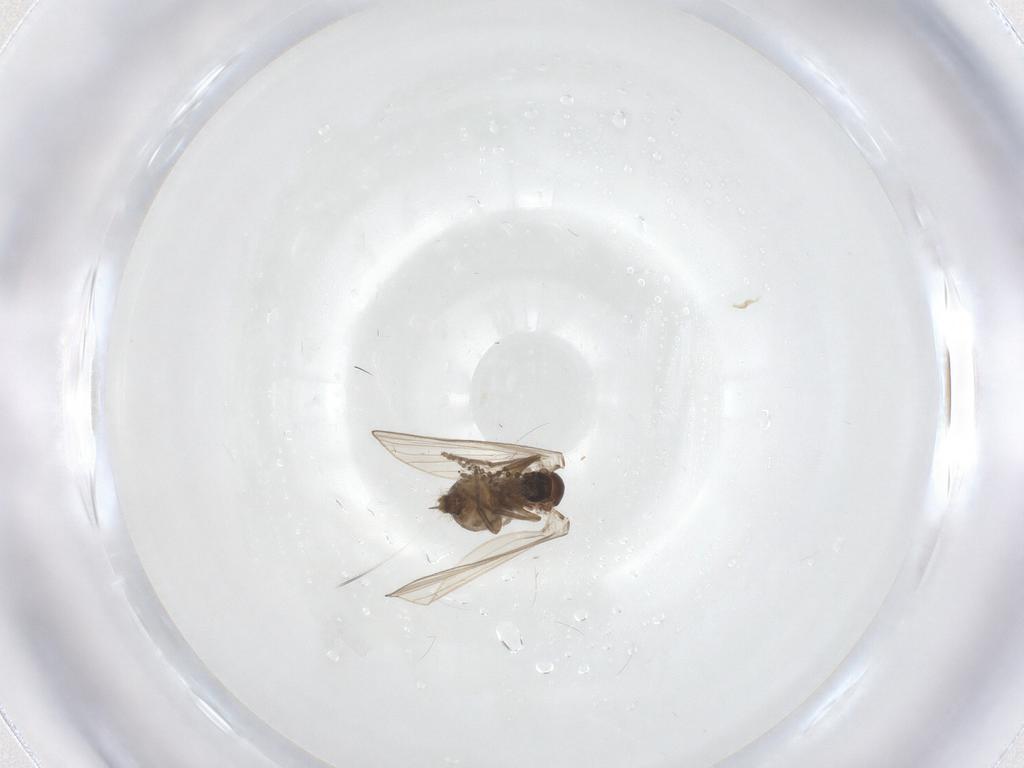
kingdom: Animalia
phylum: Arthropoda
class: Insecta
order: Diptera
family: Psychodidae
